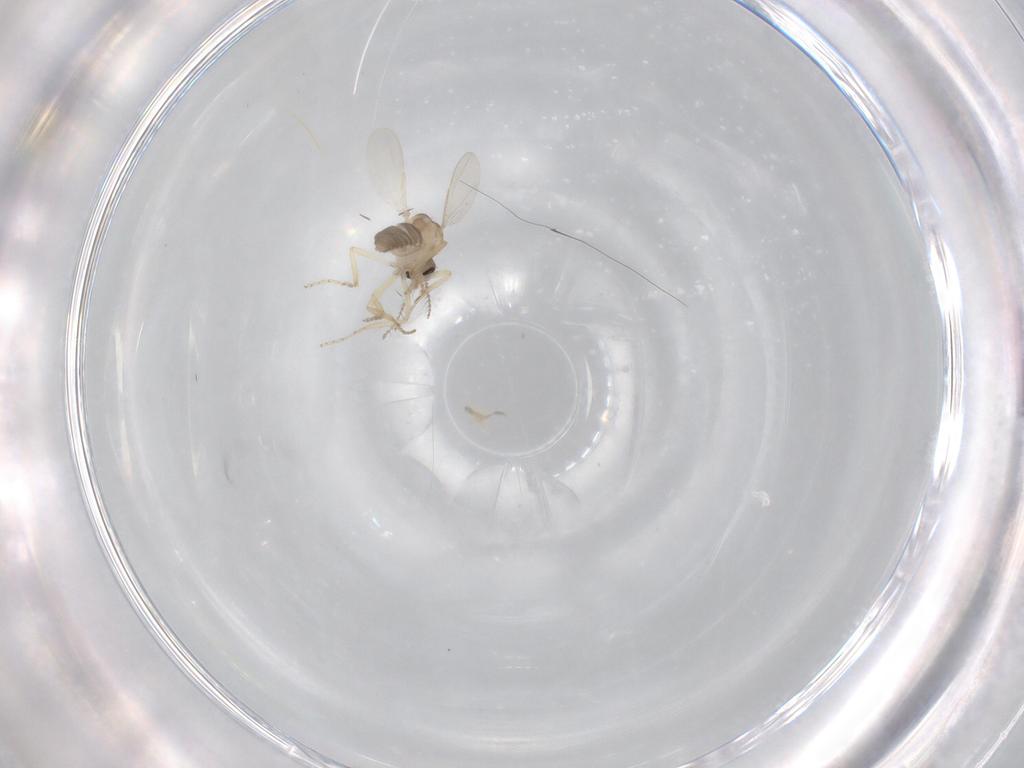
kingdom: Animalia
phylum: Arthropoda
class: Insecta
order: Diptera
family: Ceratopogonidae
